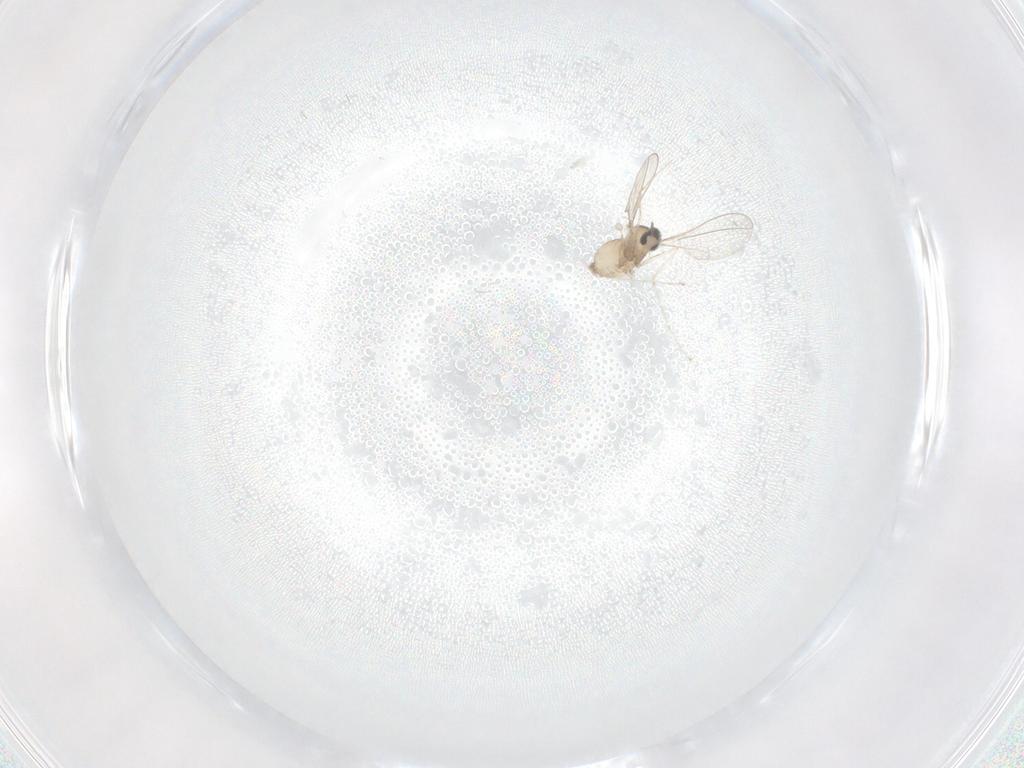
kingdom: Animalia
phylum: Arthropoda
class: Insecta
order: Diptera
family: Cecidomyiidae
